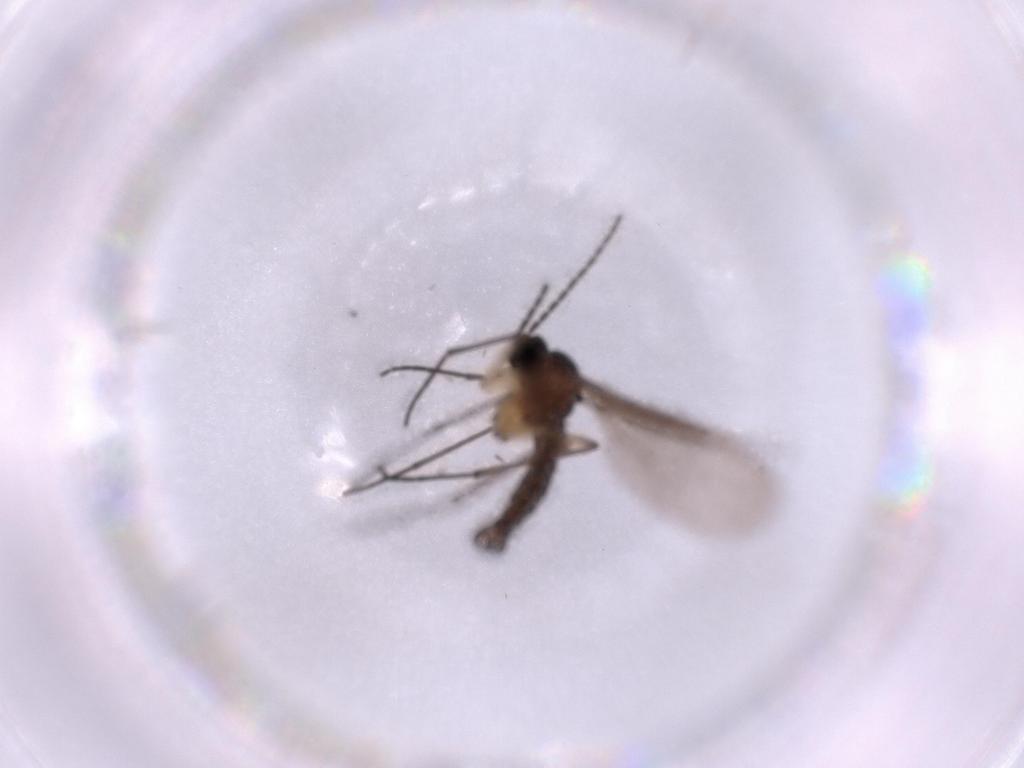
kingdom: Animalia
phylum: Arthropoda
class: Insecta
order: Diptera
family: Sciaridae
